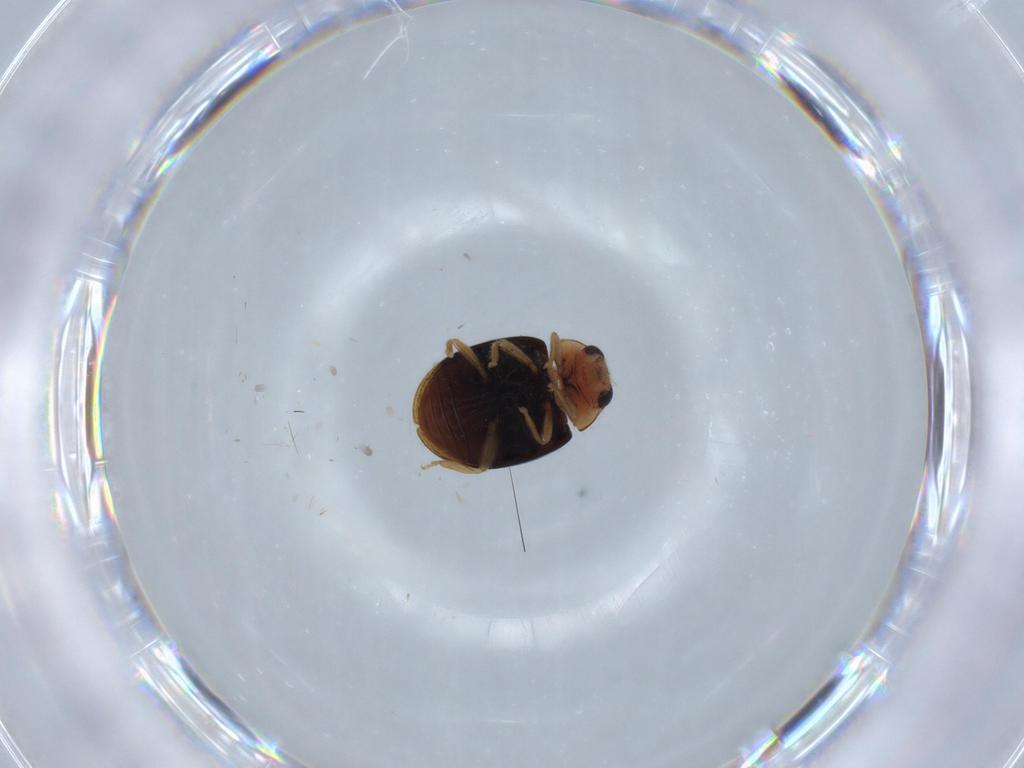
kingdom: Animalia
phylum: Arthropoda
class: Insecta
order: Coleoptera
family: Coccinellidae
